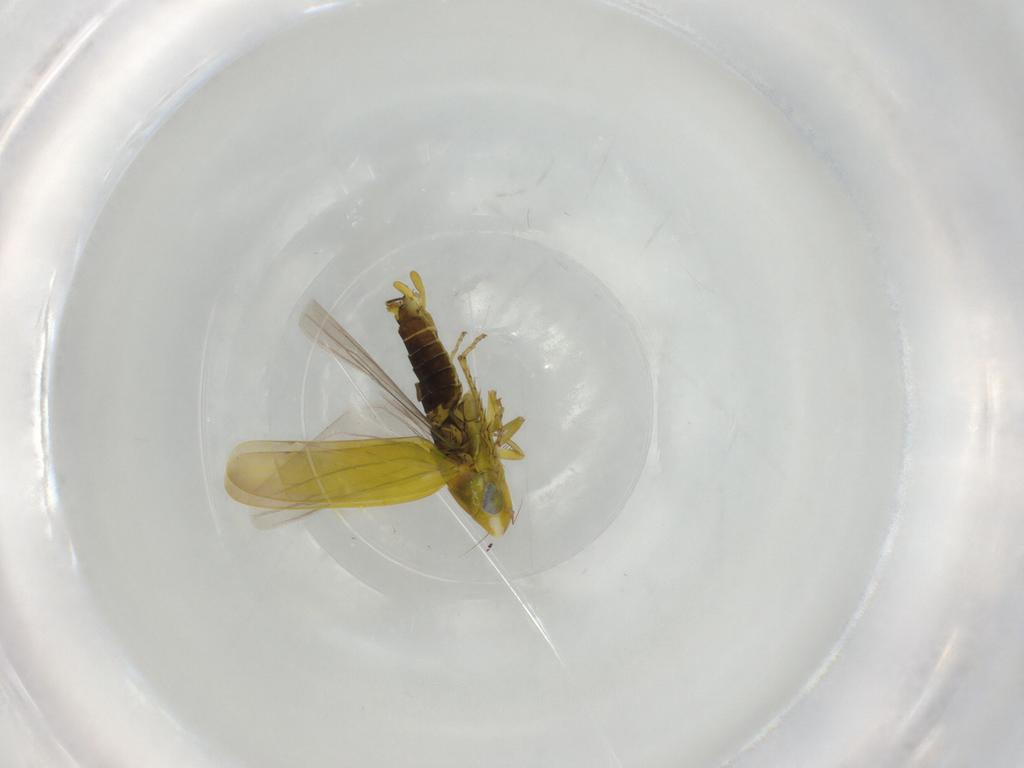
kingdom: Animalia
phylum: Arthropoda
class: Insecta
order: Hemiptera
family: Cicadellidae
